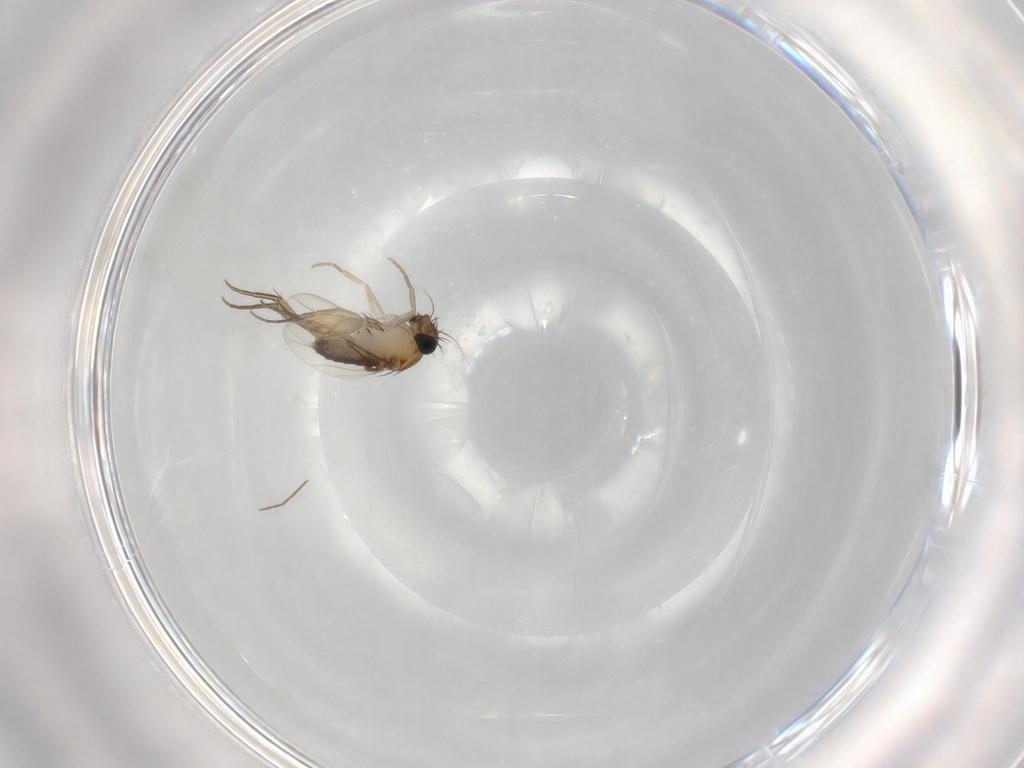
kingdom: Animalia
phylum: Arthropoda
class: Insecta
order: Diptera
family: Phoridae
